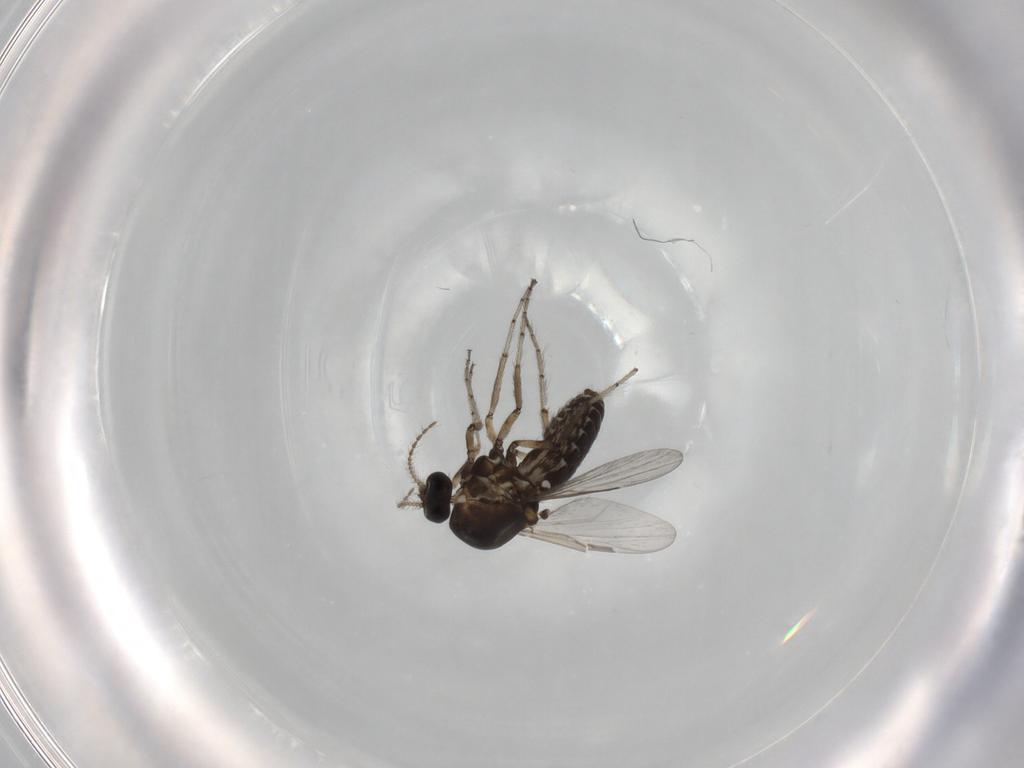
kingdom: Animalia
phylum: Arthropoda
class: Insecta
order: Diptera
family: Ceratopogonidae
